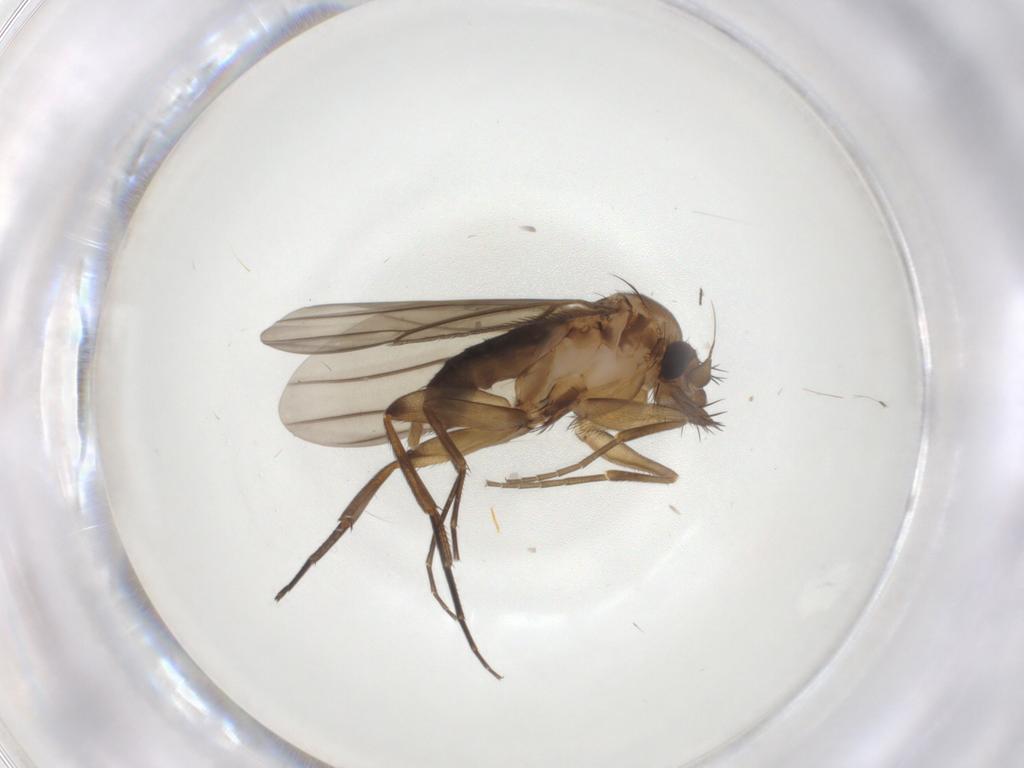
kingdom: Animalia
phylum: Arthropoda
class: Insecta
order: Diptera
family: Phoridae
